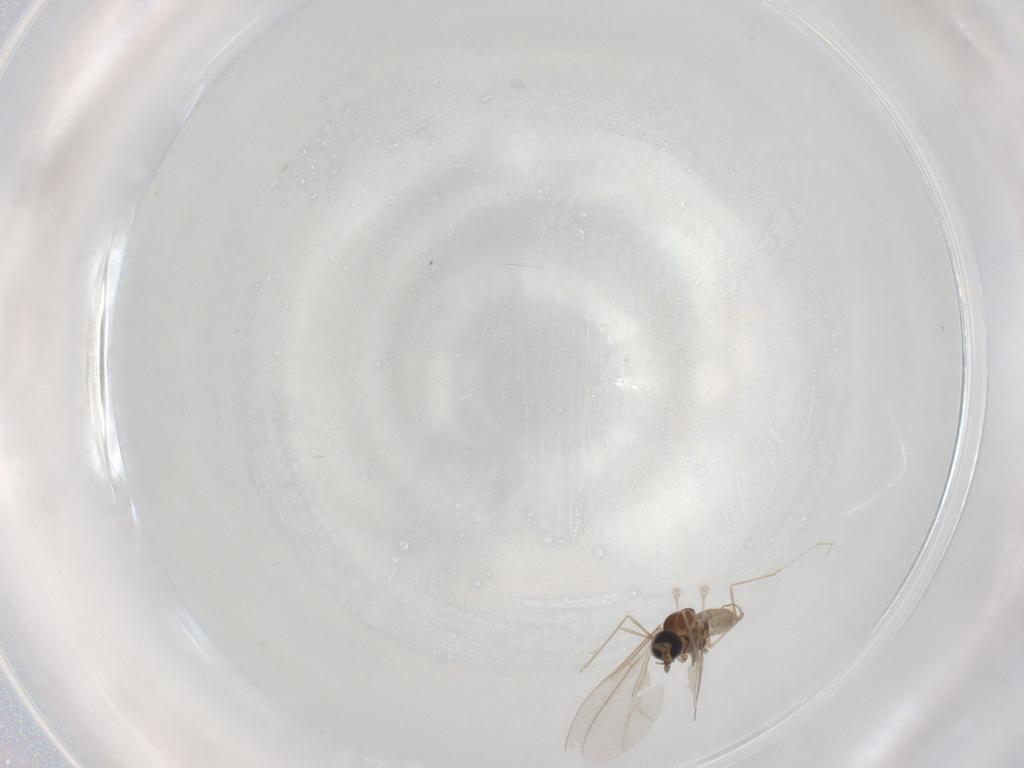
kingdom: Animalia
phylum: Arthropoda
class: Insecta
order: Diptera
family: Cecidomyiidae
